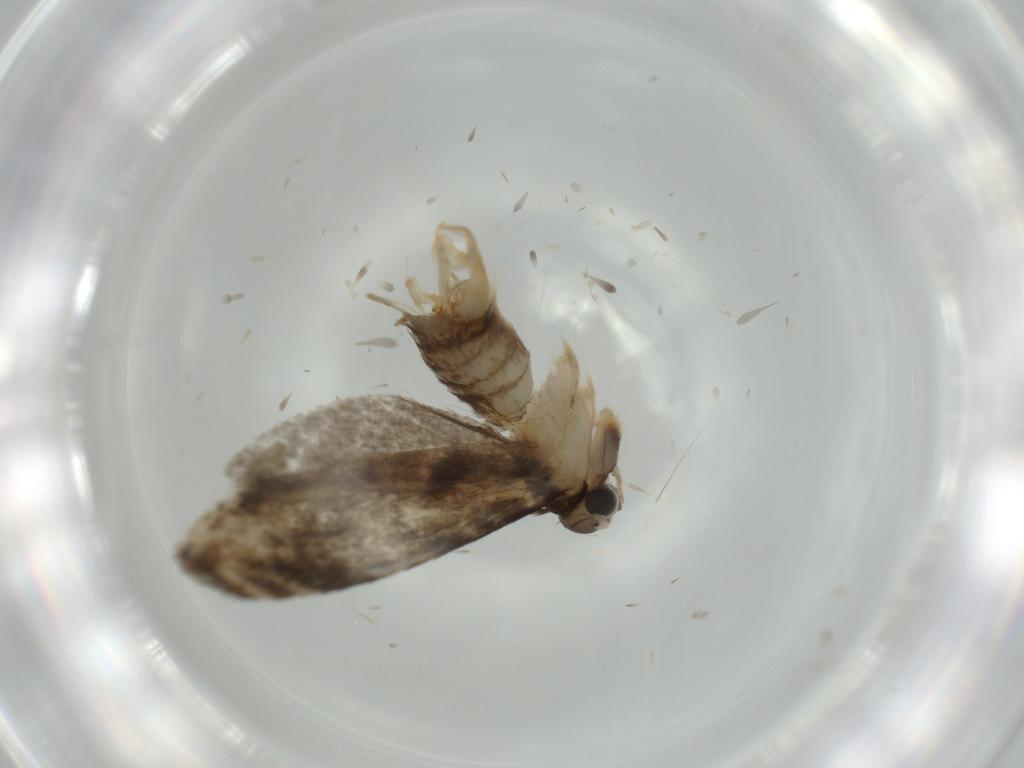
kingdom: Animalia
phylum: Arthropoda
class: Insecta
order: Lepidoptera
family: Tineidae
